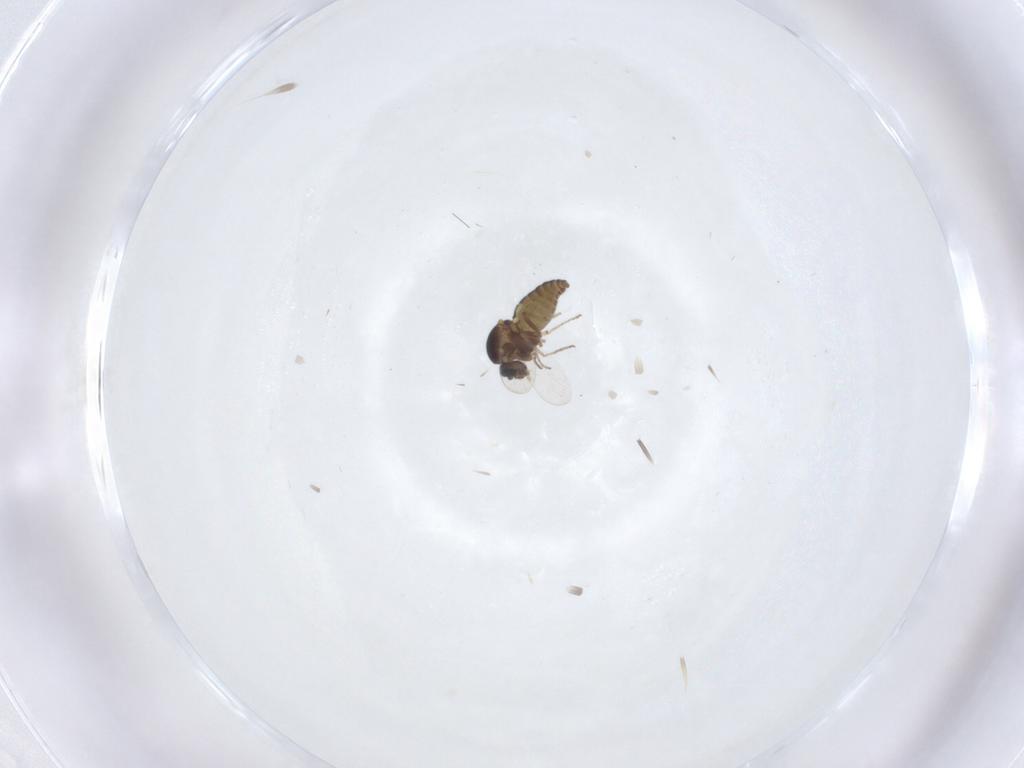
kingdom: Animalia
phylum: Arthropoda
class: Insecta
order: Diptera
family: Ceratopogonidae
